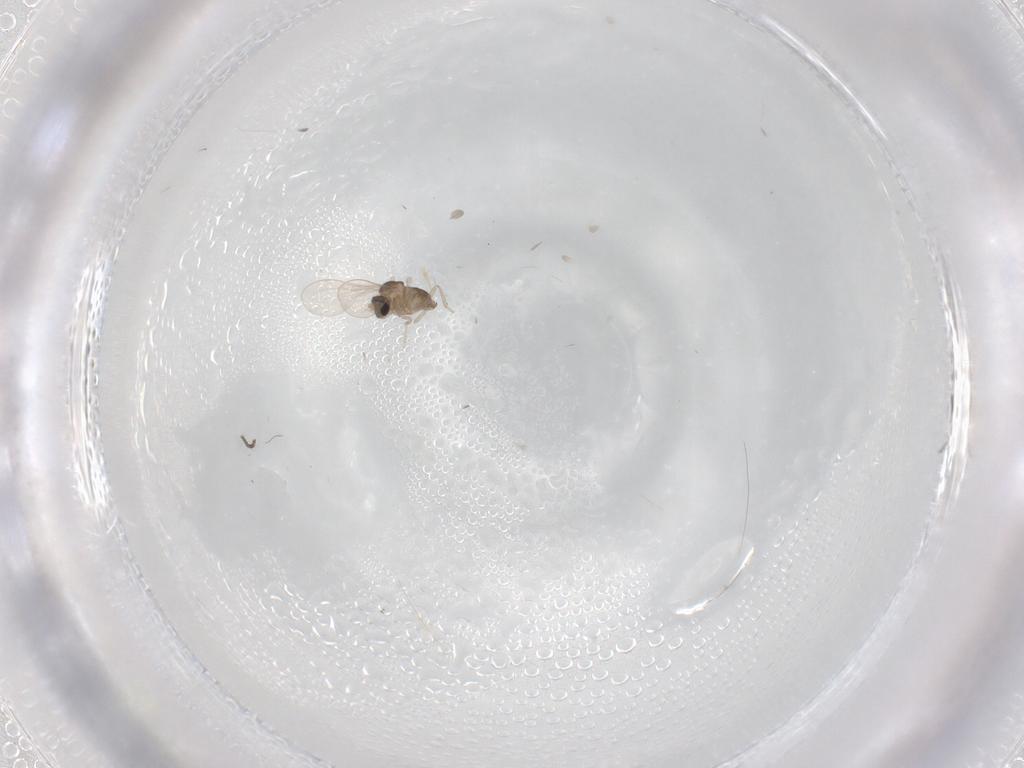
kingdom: Animalia
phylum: Arthropoda
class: Insecta
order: Diptera
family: Cecidomyiidae
